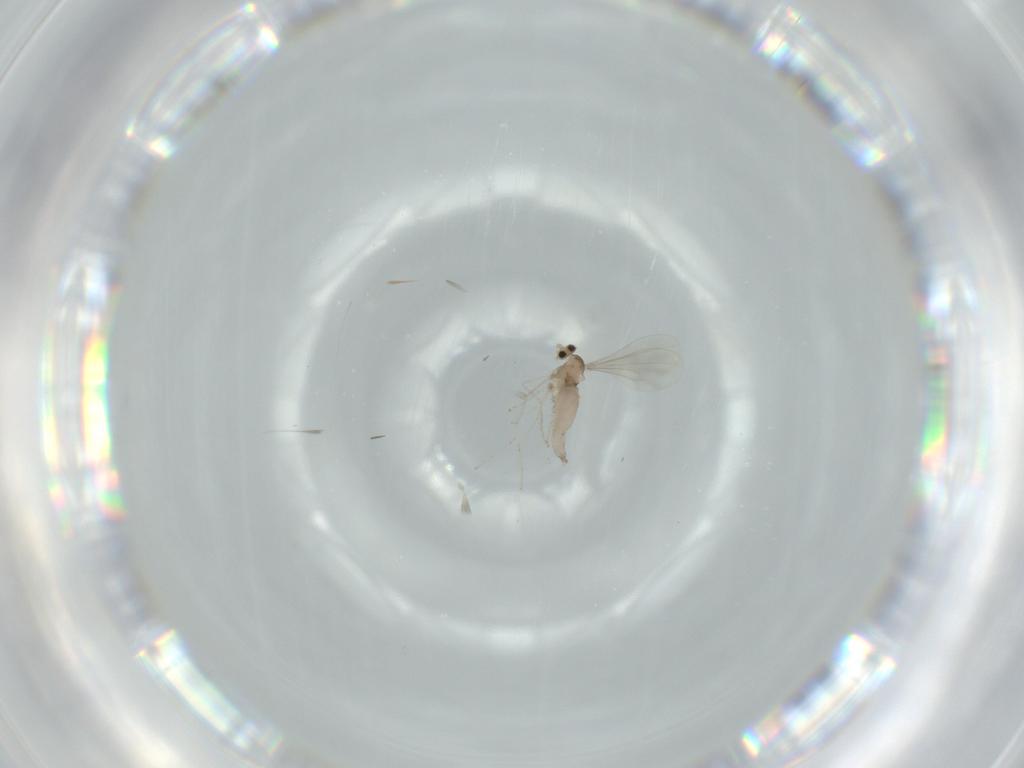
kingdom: Animalia
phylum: Arthropoda
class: Insecta
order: Diptera
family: Cecidomyiidae
